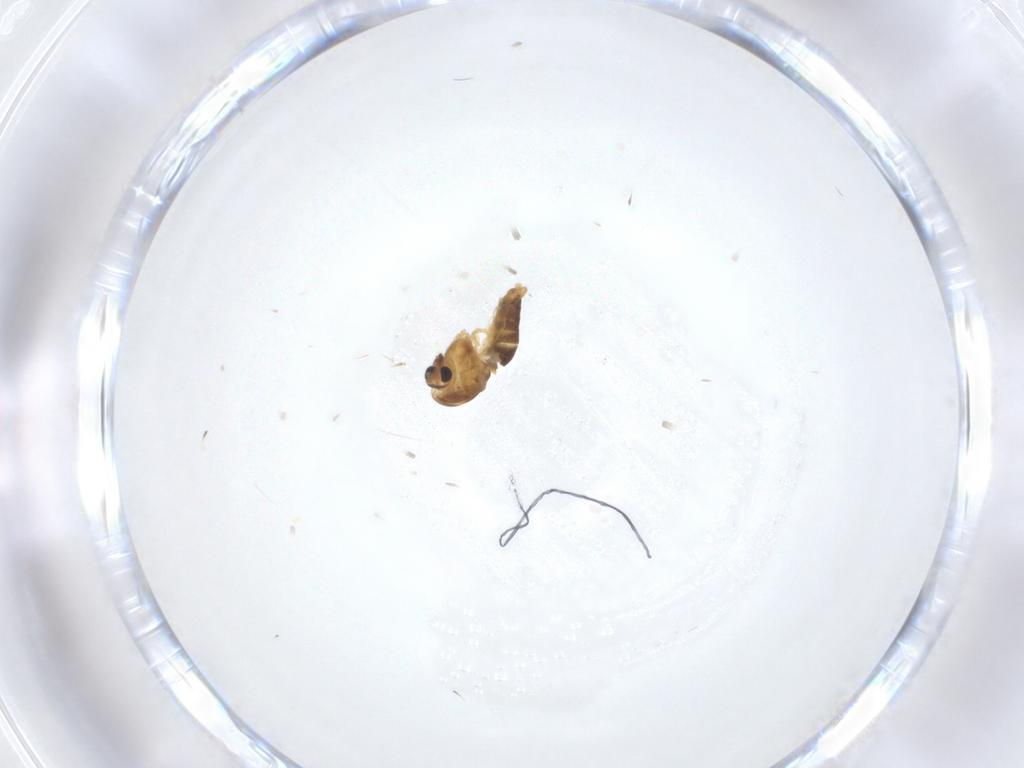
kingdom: Animalia
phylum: Arthropoda
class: Insecta
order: Diptera
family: Chironomidae
